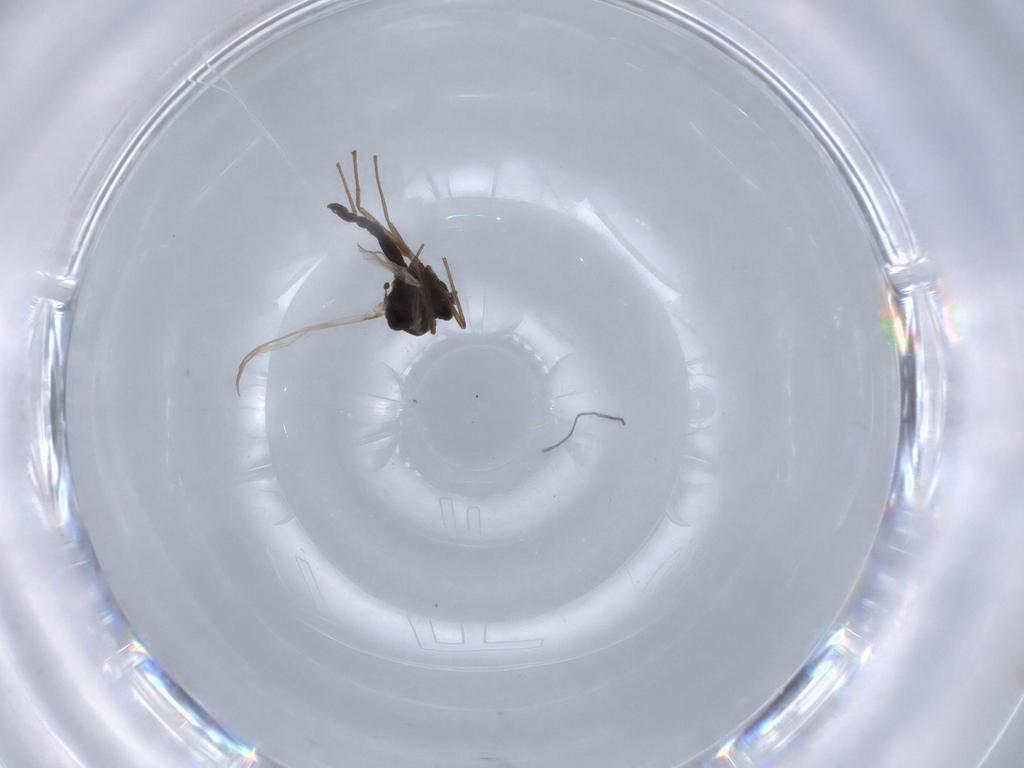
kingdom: Animalia
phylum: Arthropoda
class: Insecta
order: Diptera
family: Chironomidae
